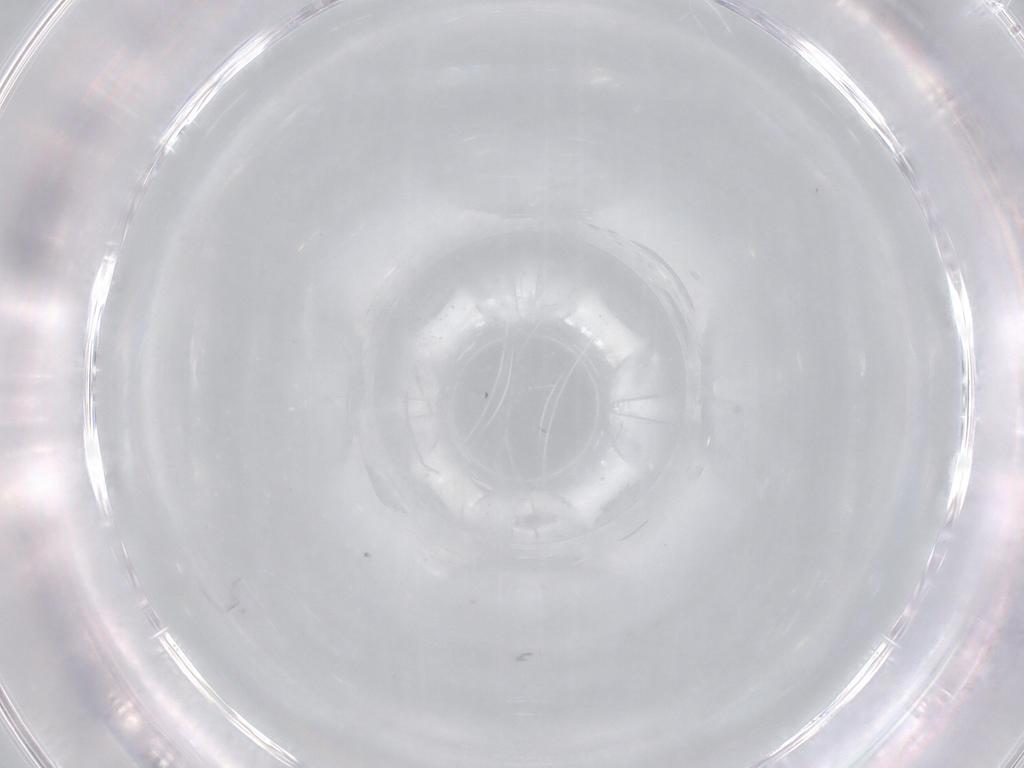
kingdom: Animalia
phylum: Arthropoda
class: Insecta
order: Diptera
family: Cecidomyiidae
